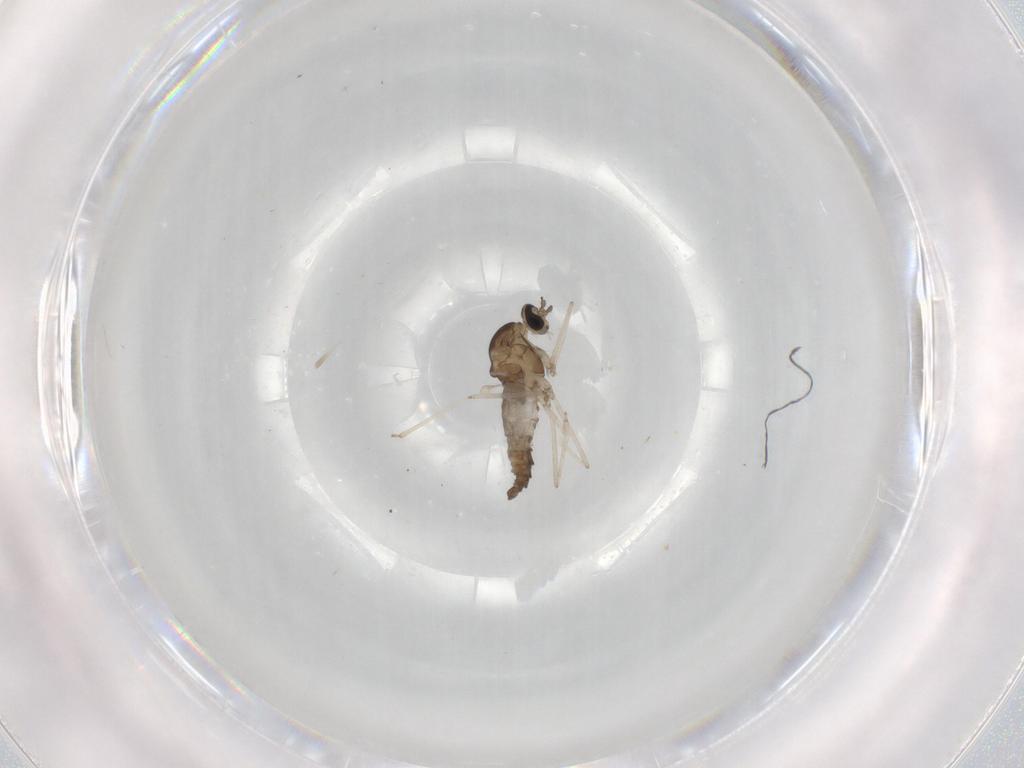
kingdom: Animalia
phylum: Arthropoda
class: Insecta
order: Diptera
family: Cecidomyiidae
